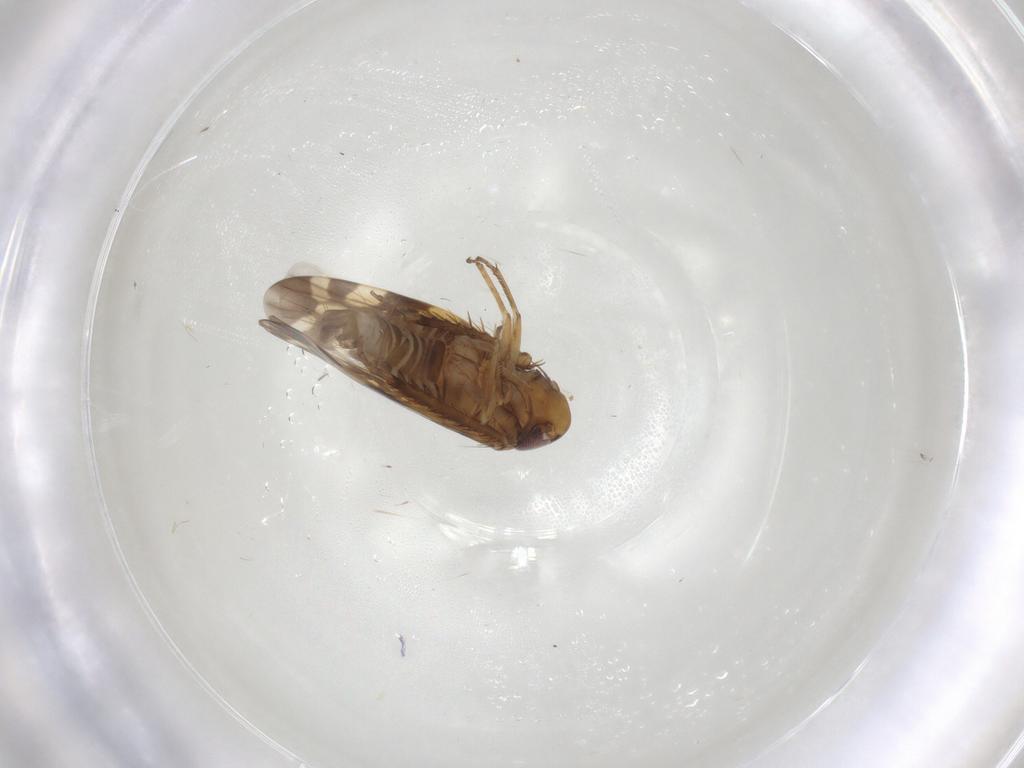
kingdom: Animalia
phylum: Arthropoda
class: Insecta
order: Hemiptera
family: Cicadellidae
